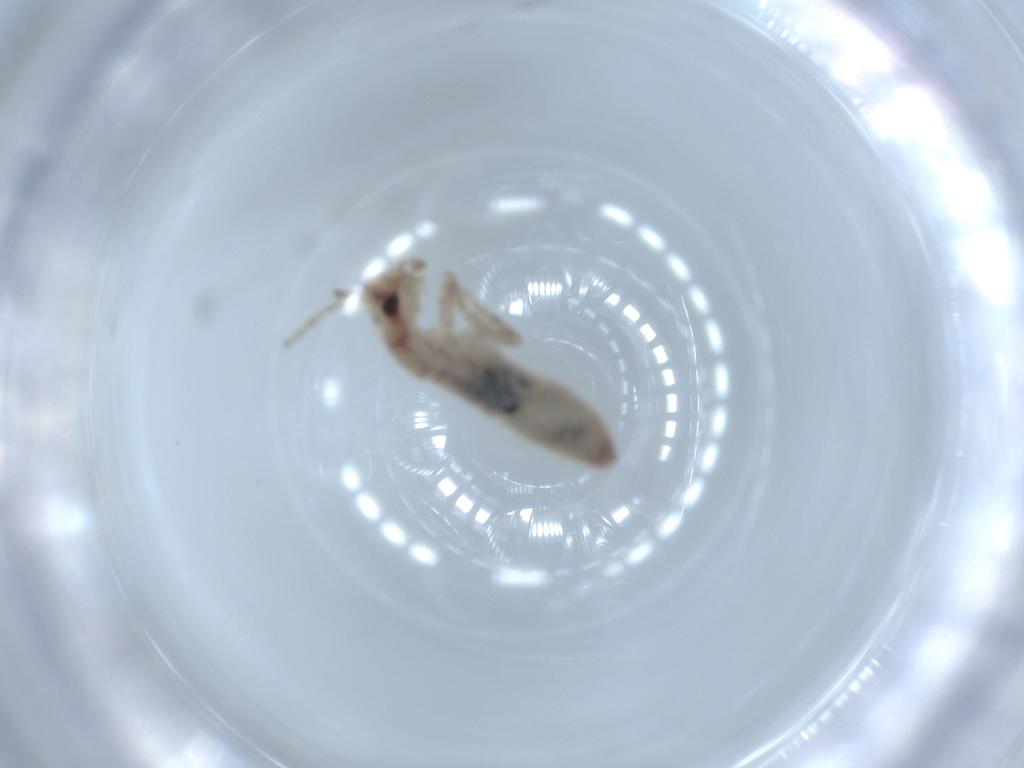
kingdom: Animalia
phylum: Arthropoda
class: Insecta
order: Orthoptera
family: Mogoplistidae
